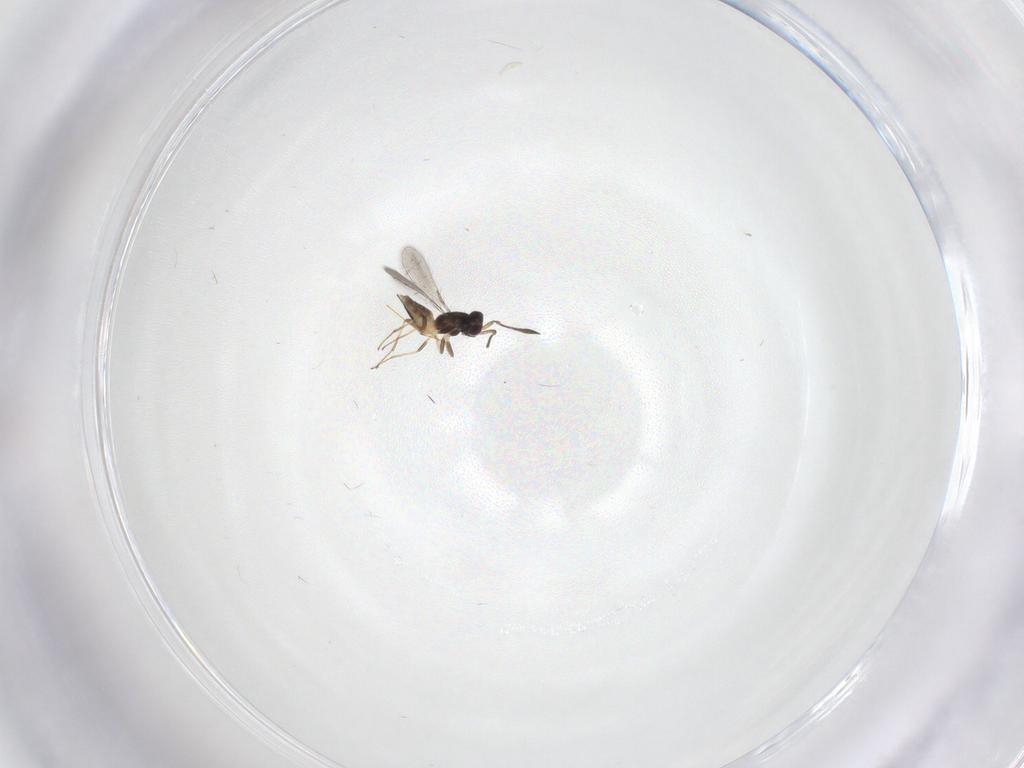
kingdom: Animalia
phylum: Arthropoda
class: Insecta
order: Hymenoptera
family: Mymaridae
